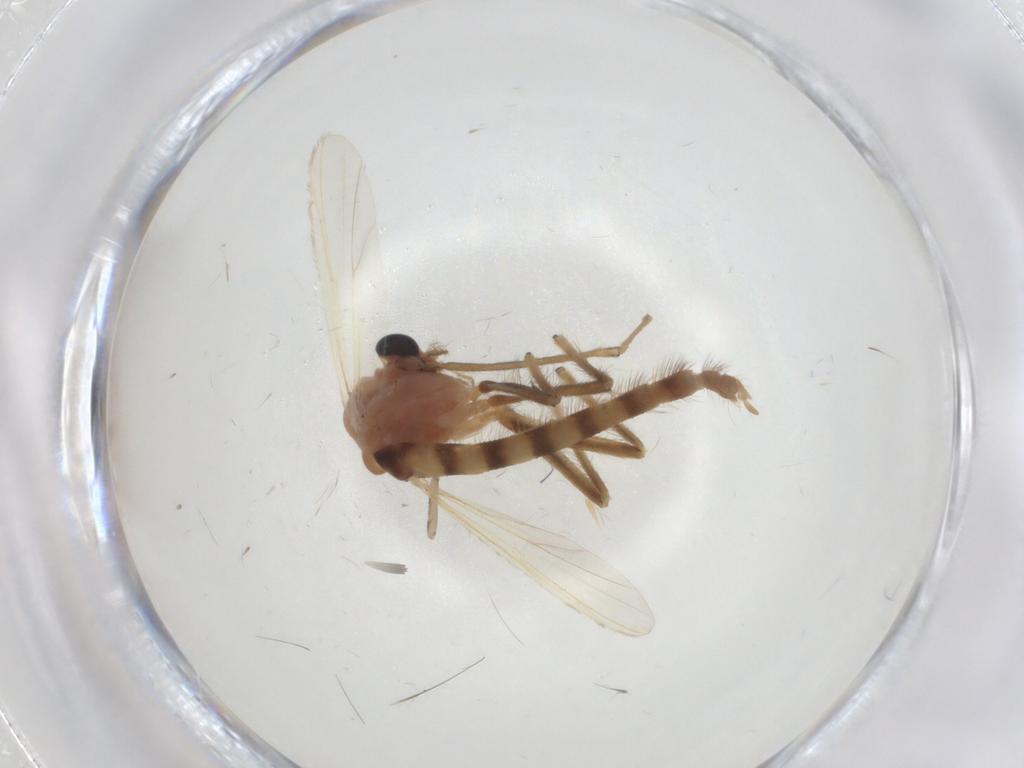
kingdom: Animalia
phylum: Arthropoda
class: Insecta
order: Diptera
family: Chironomidae
